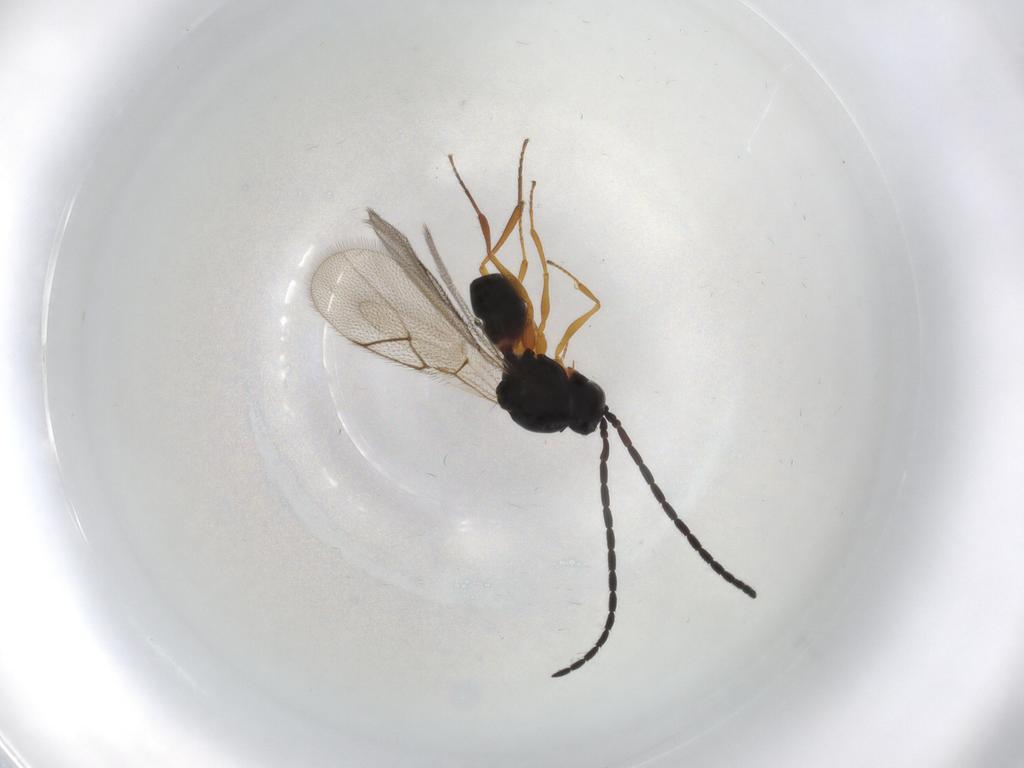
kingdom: Animalia
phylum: Arthropoda
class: Insecta
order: Hymenoptera
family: Figitidae
